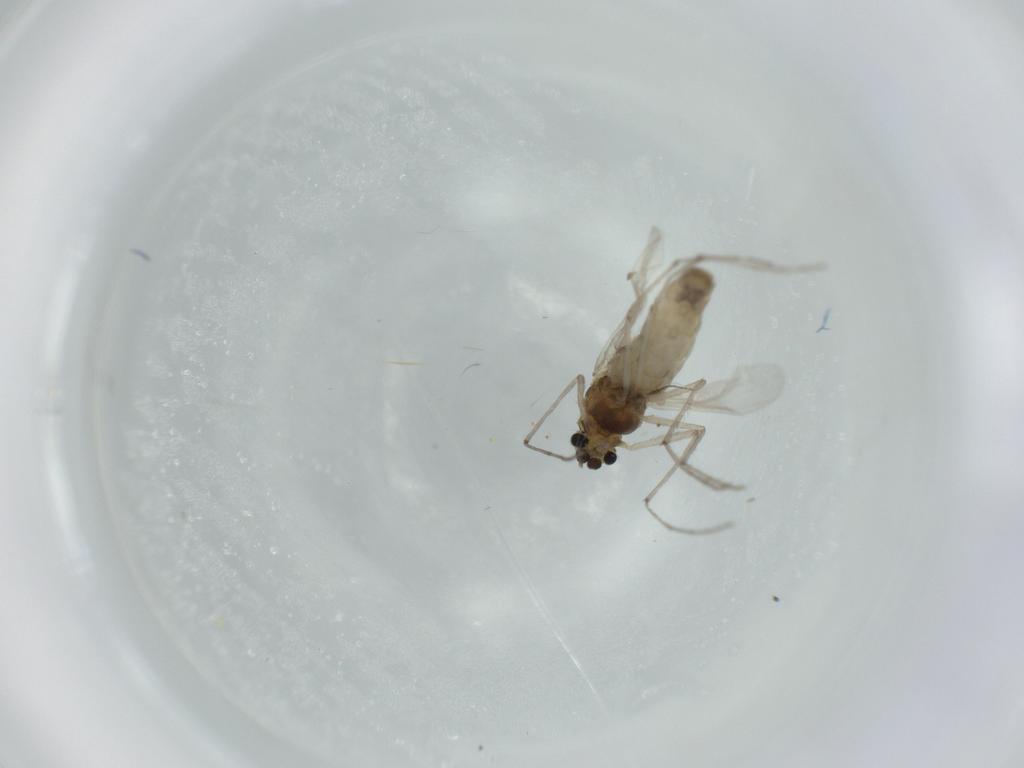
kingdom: Animalia
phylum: Arthropoda
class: Insecta
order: Diptera
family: Chironomidae
